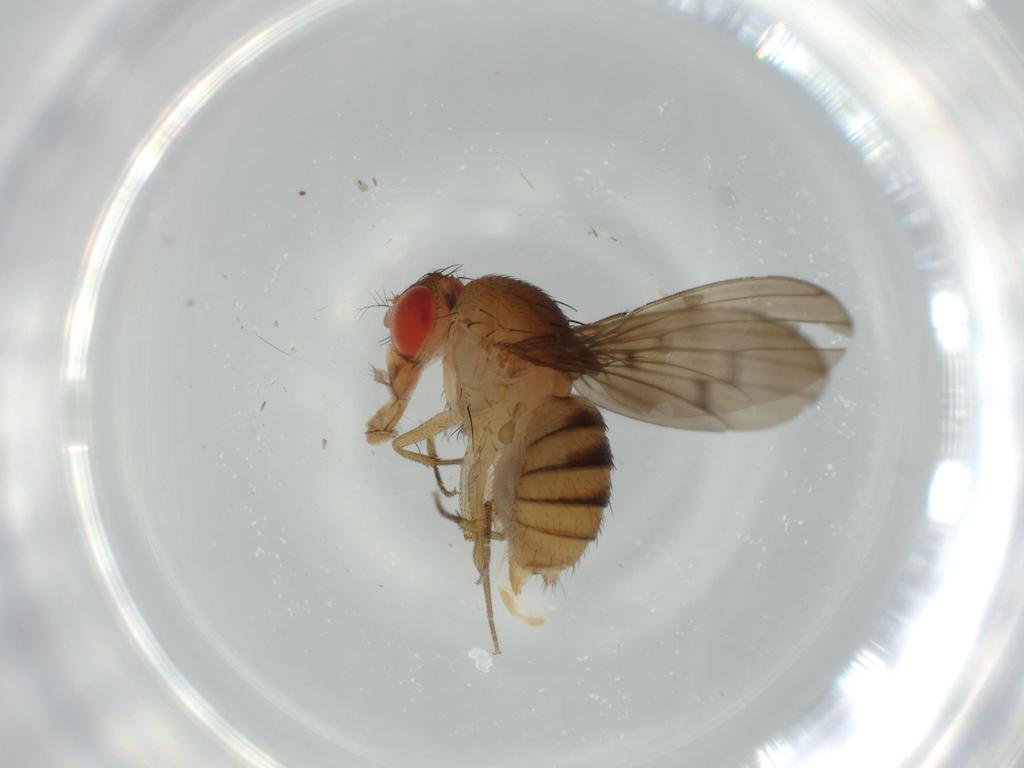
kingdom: Animalia
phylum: Arthropoda
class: Insecta
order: Diptera
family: Drosophilidae
